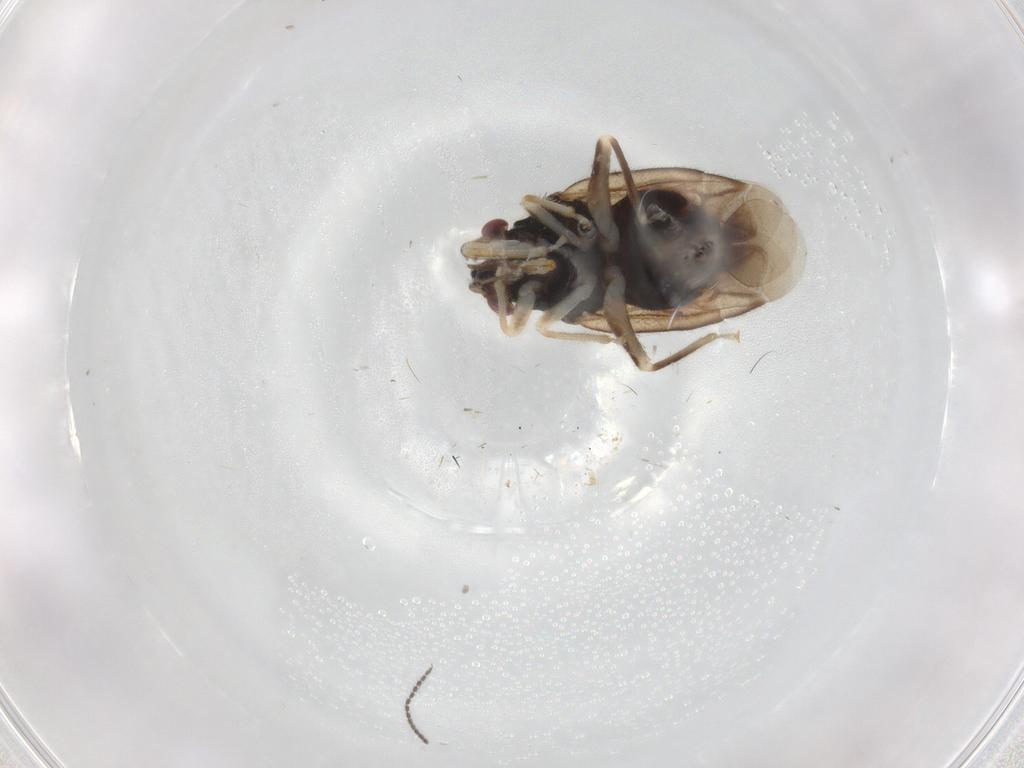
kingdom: Animalia
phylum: Arthropoda
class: Insecta
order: Hemiptera
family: Miridae
